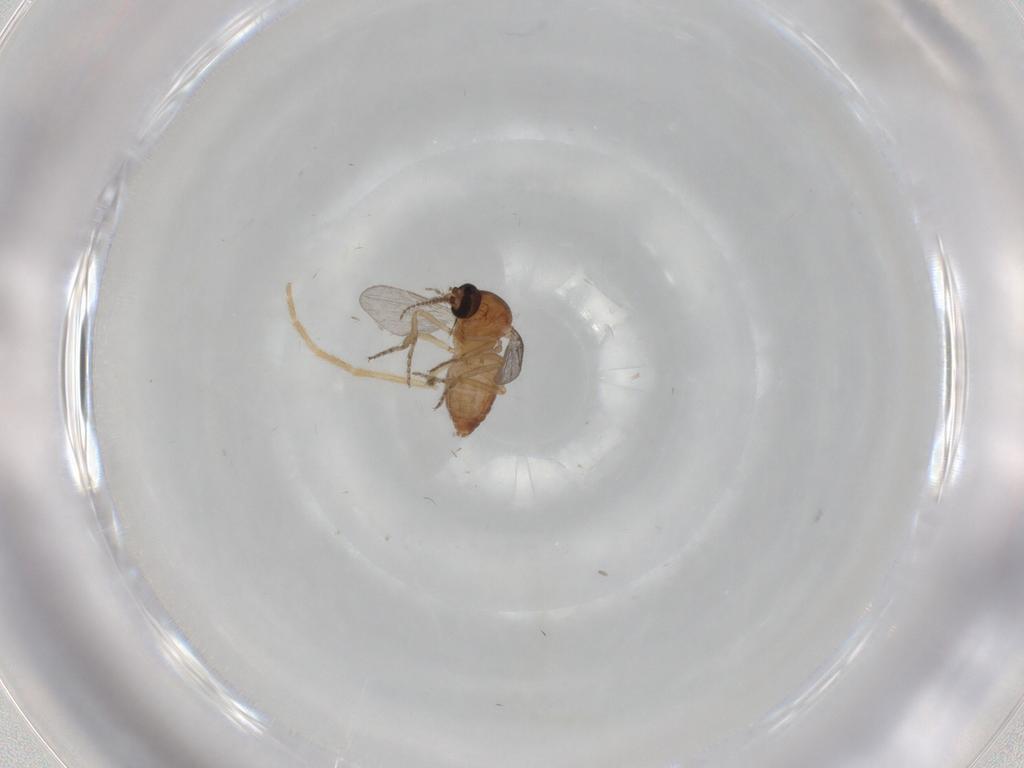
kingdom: Animalia
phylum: Arthropoda
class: Insecta
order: Diptera
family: Ceratopogonidae
